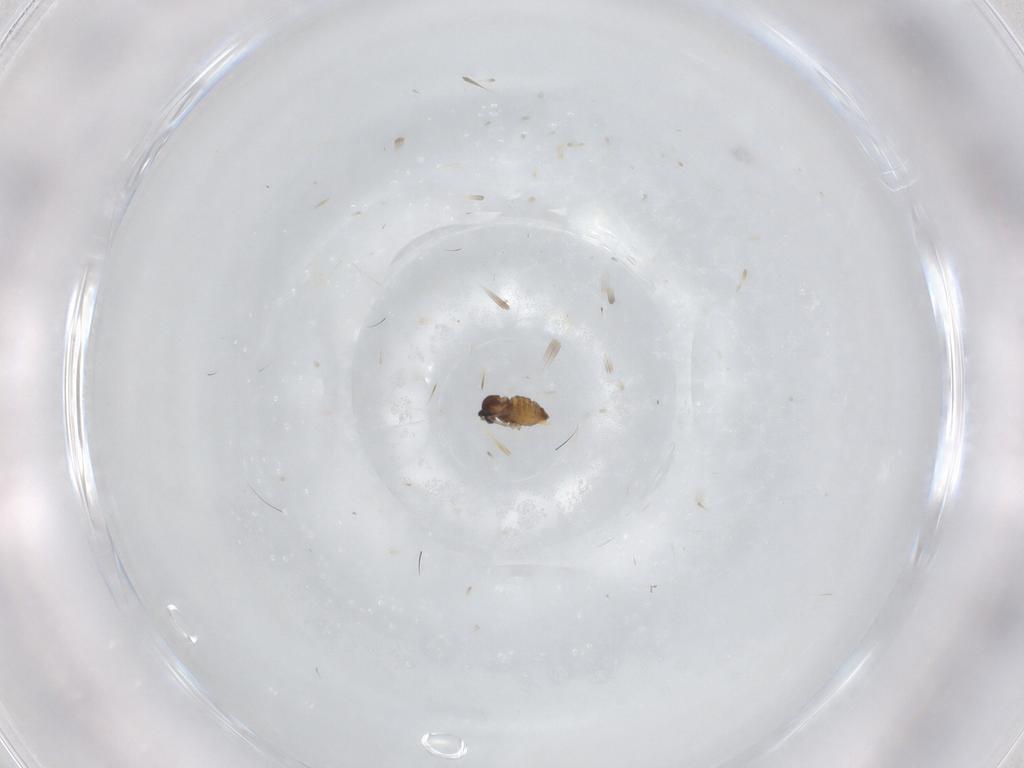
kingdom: Animalia
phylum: Arthropoda
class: Insecta
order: Diptera
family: Cecidomyiidae
